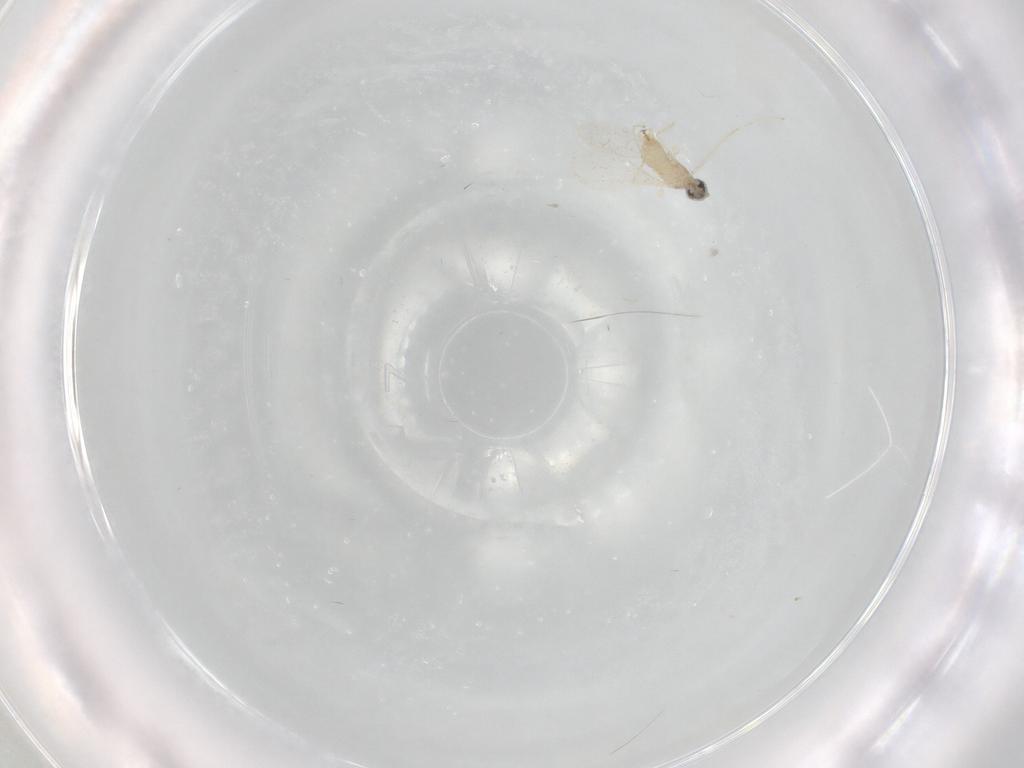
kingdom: Animalia
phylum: Arthropoda
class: Insecta
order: Diptera
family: Cecidomyiidae
